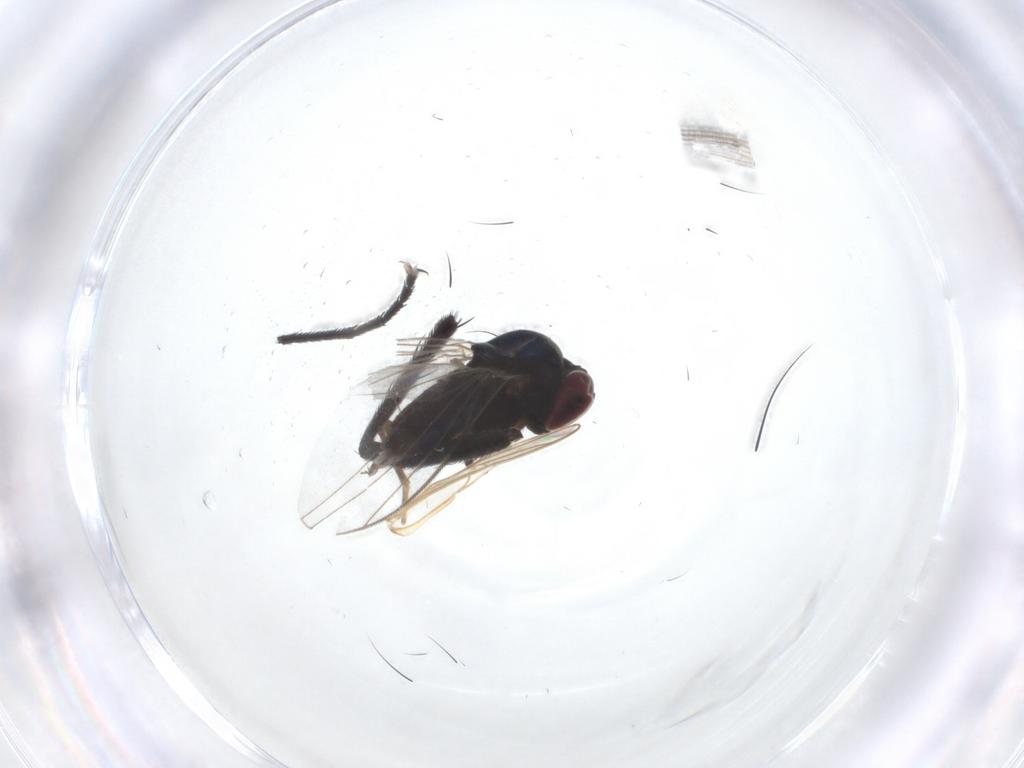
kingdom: Animalia
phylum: Arthropoda
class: Insecta
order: Diptera
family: Dolichopodidae
